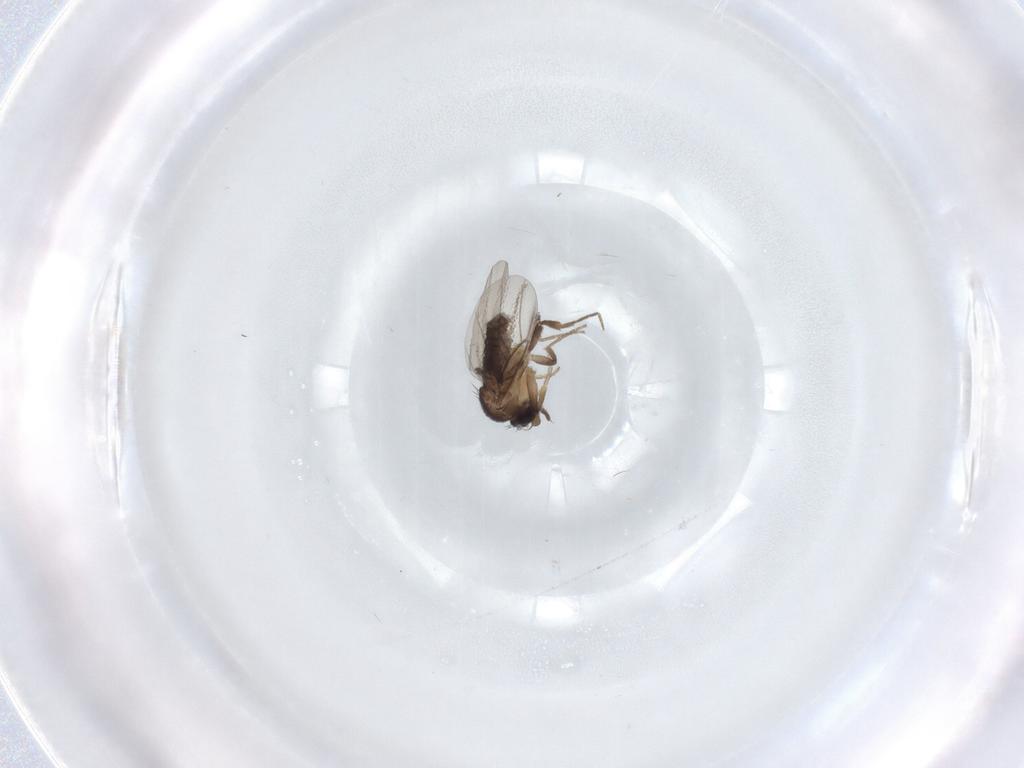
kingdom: Animalia
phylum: Arthropoda
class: Insecta
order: Diptera
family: Phoridae
